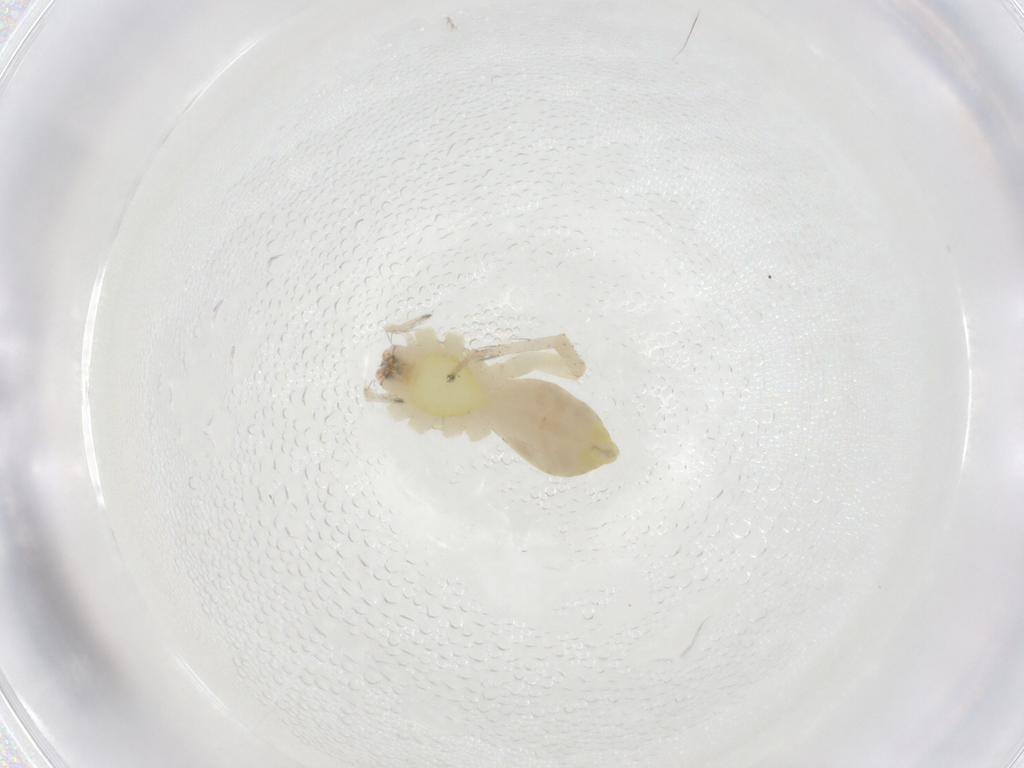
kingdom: Animalia
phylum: Arthropoda
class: Arachnida
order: Araneae
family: Anyphaenidae
